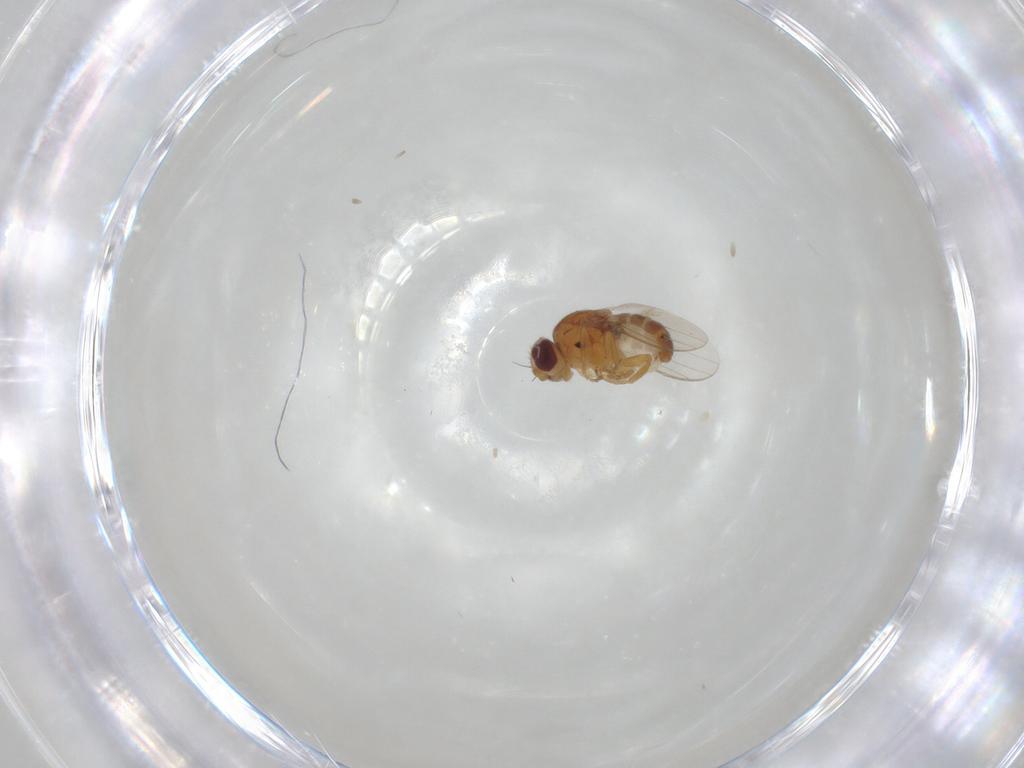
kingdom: Animalia
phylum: Arthropoda
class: Insecta
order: Diptera
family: Chloropidae
